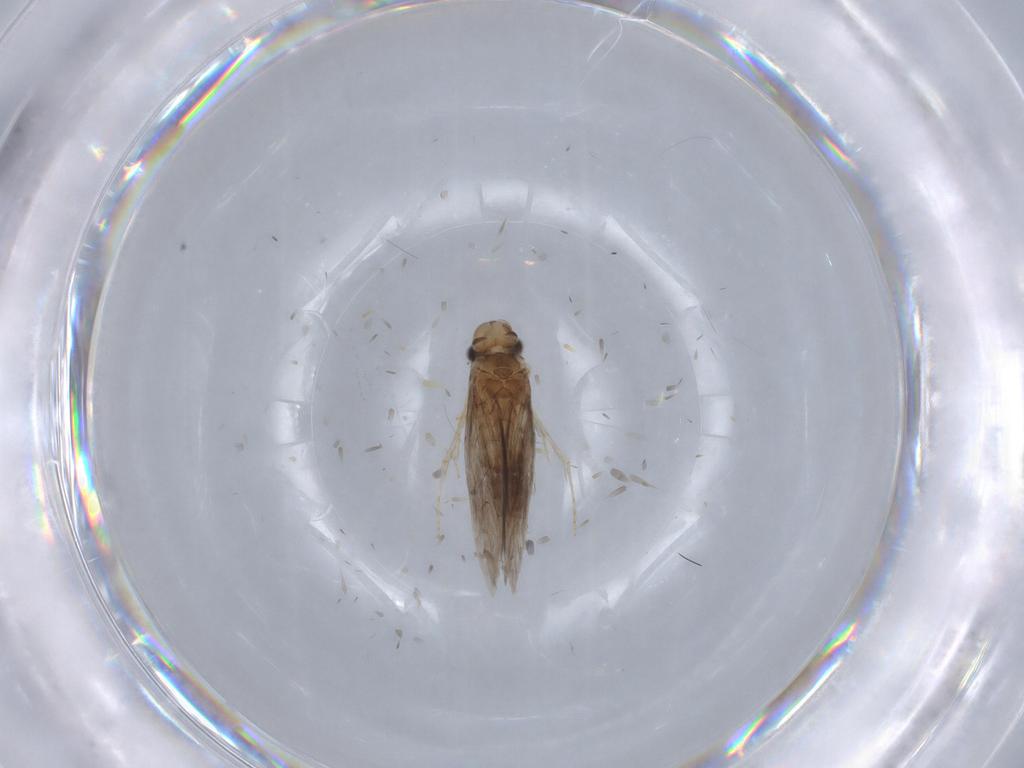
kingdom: Animalia
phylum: Arthropoda
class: Insecta
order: Trichoptera
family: Hydroptilidae
